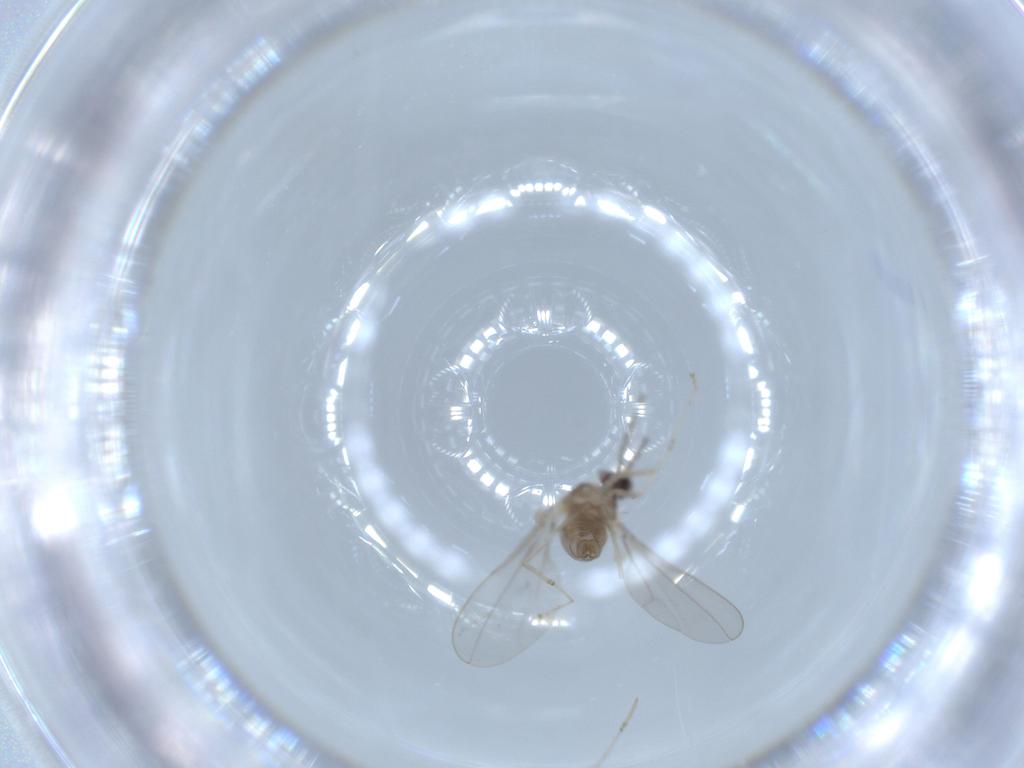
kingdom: Animalia
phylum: Arthropoda
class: Insecta
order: Diptera
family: Cecidomyiidae
